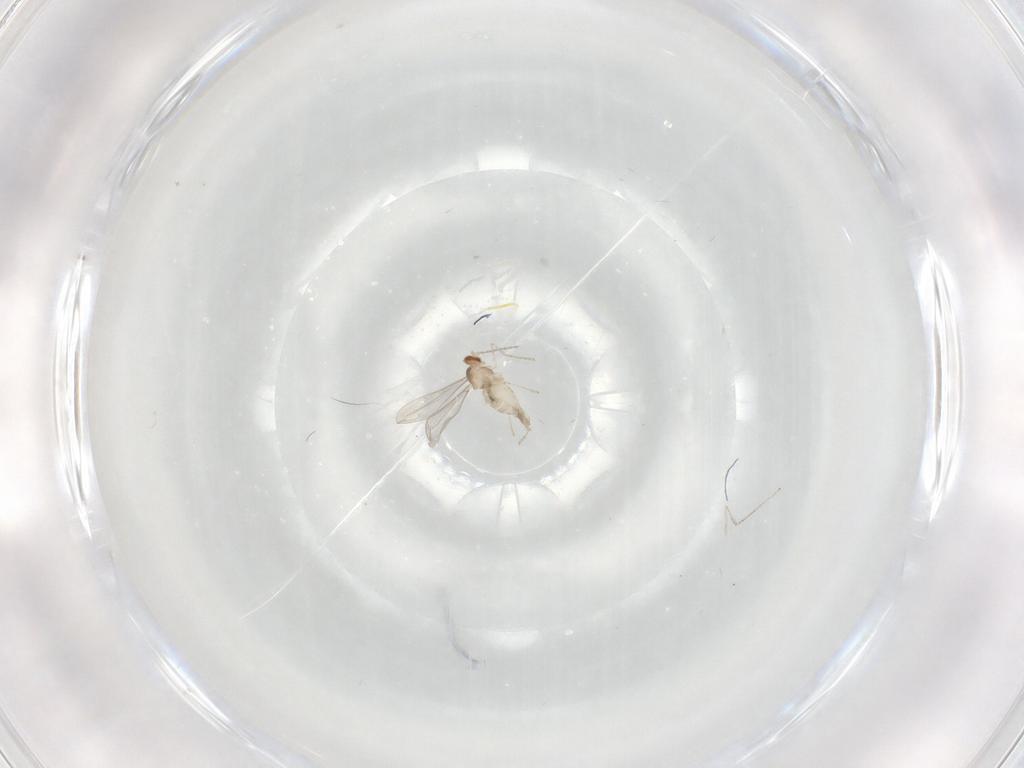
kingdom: Animalia
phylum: Arthropoda
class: Insecta
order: Diptera
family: Cecidomyiidae
